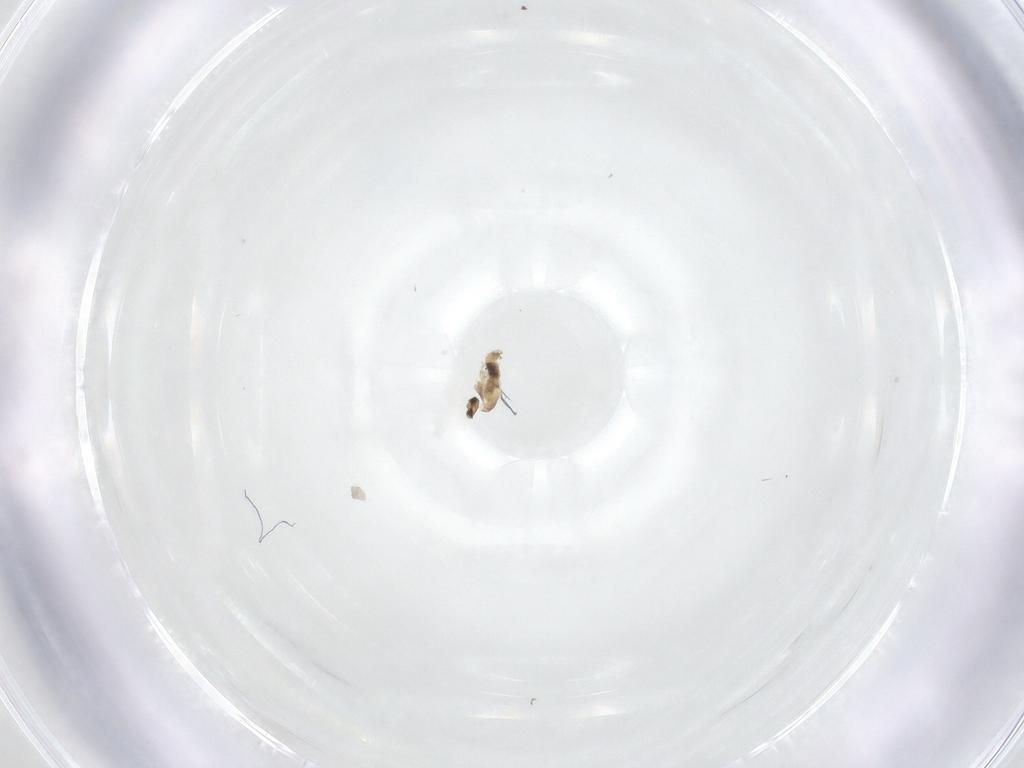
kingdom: Animalia
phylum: Arthropoda
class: Insecta
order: Diptera
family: Cecidomyiidae
